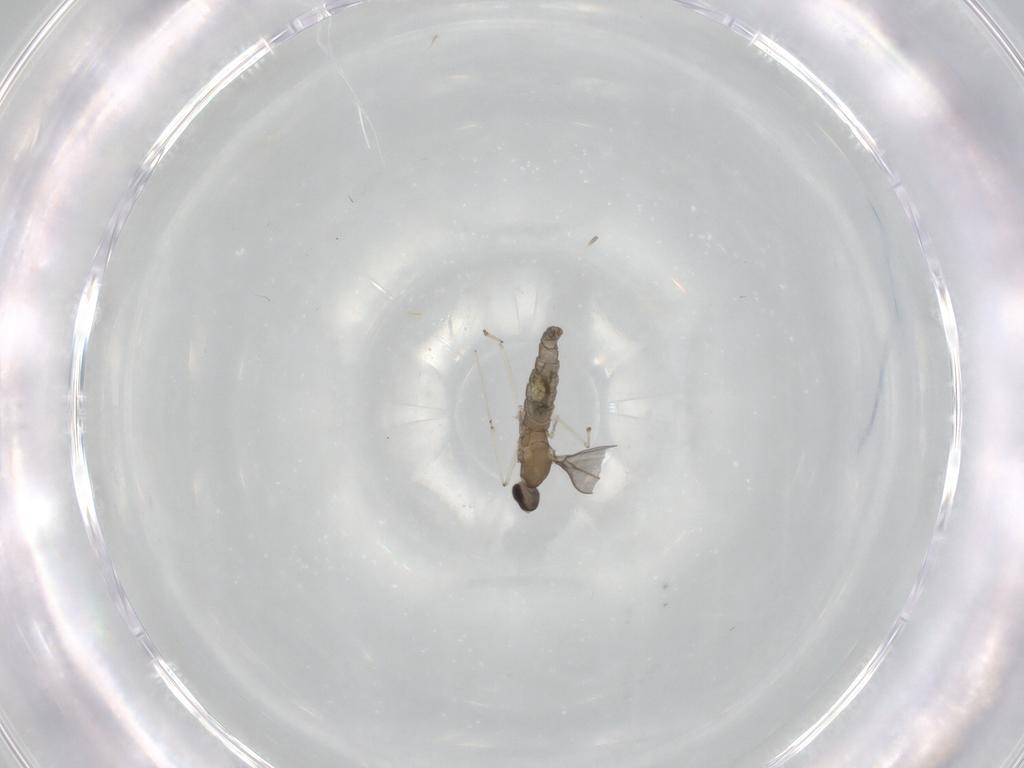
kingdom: Animalia
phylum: Arthropoda
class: Insecta
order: Diptera
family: Cecidomyiidae
